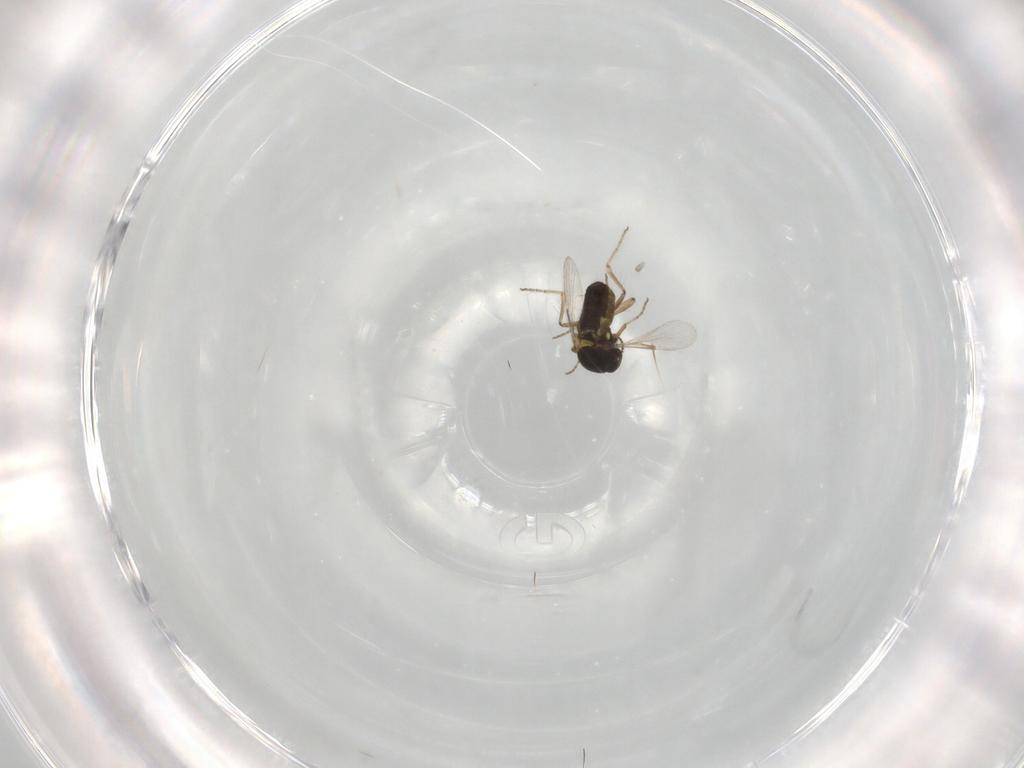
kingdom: Animalia
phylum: Arthropoda
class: Insecta
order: Diptera
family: Ceratopogonidae
